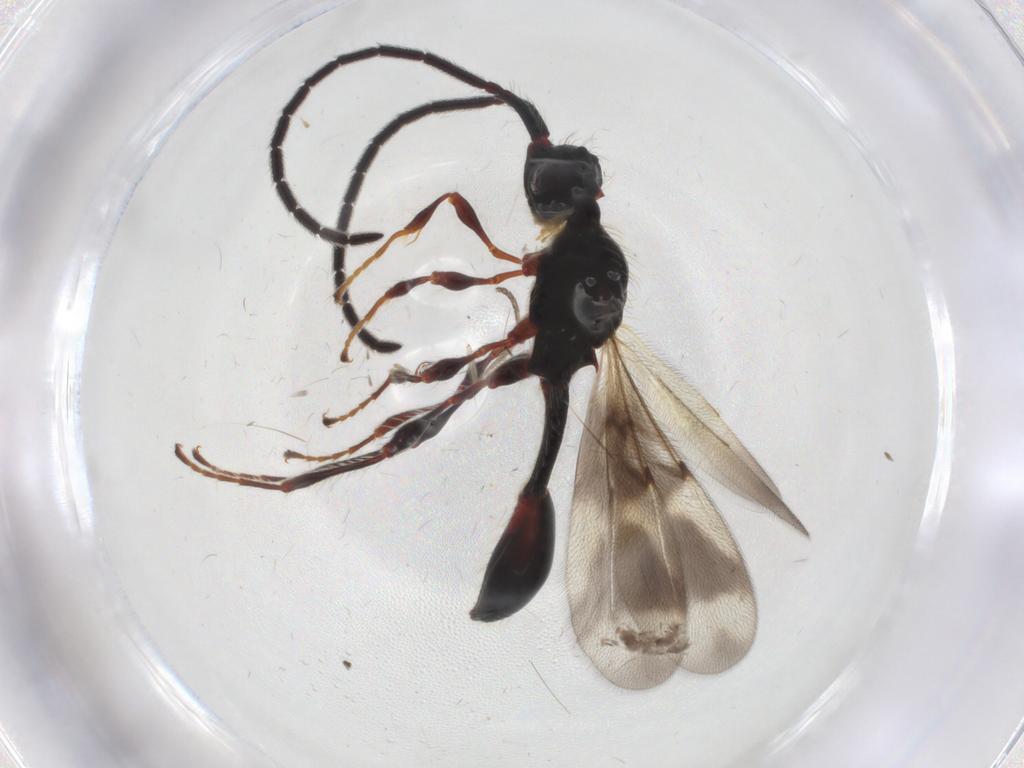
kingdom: Animalia
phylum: Arthropoda
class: Insecta
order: Hymenoptera
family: Diapriidae
